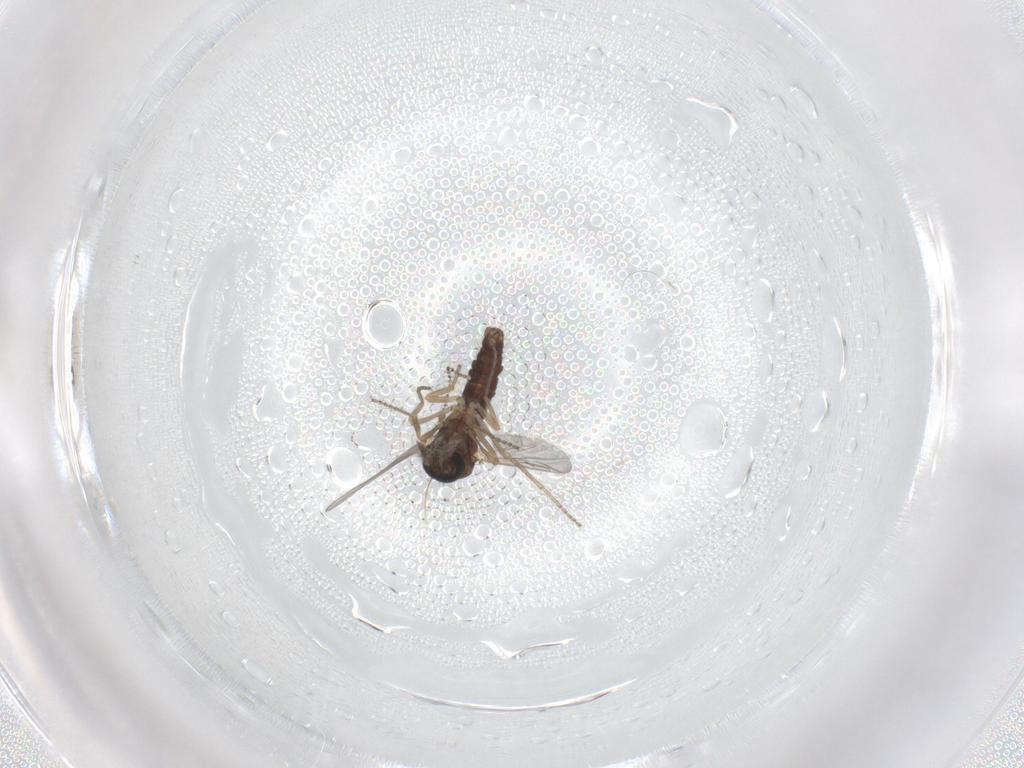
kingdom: Animalia
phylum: Arthropoda
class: Insecta
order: Diptera
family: Ceratopogonidae
